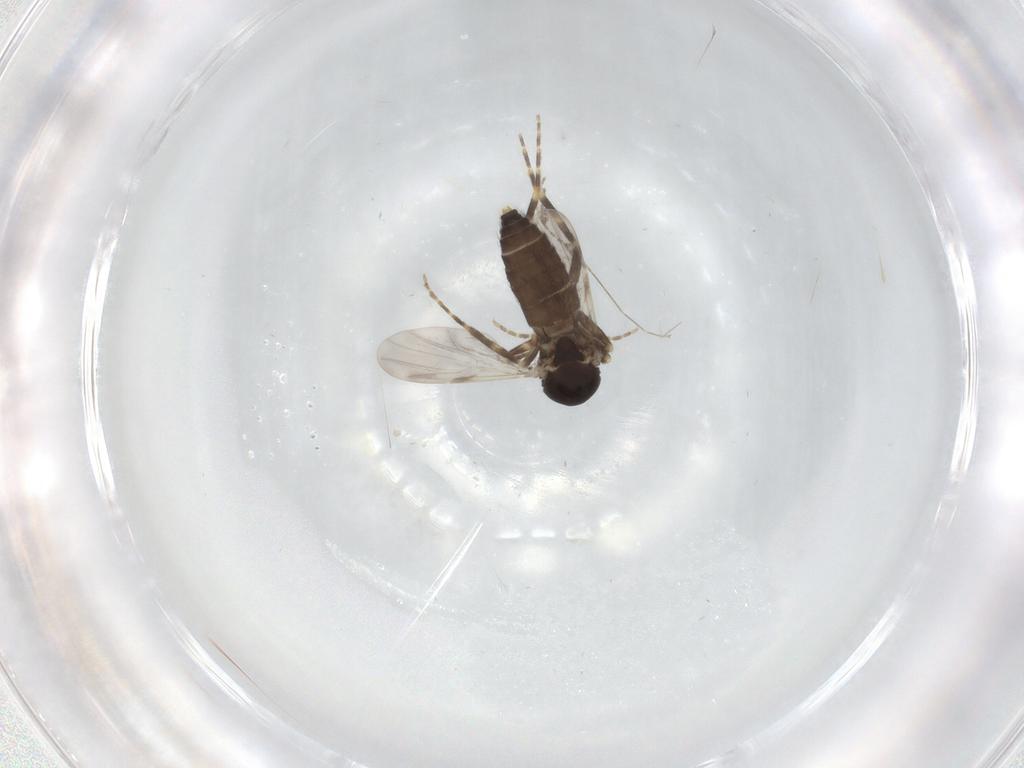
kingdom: Animalia
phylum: Arthropoda
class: Insecta
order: Diptera
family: Ceratopogonidae
